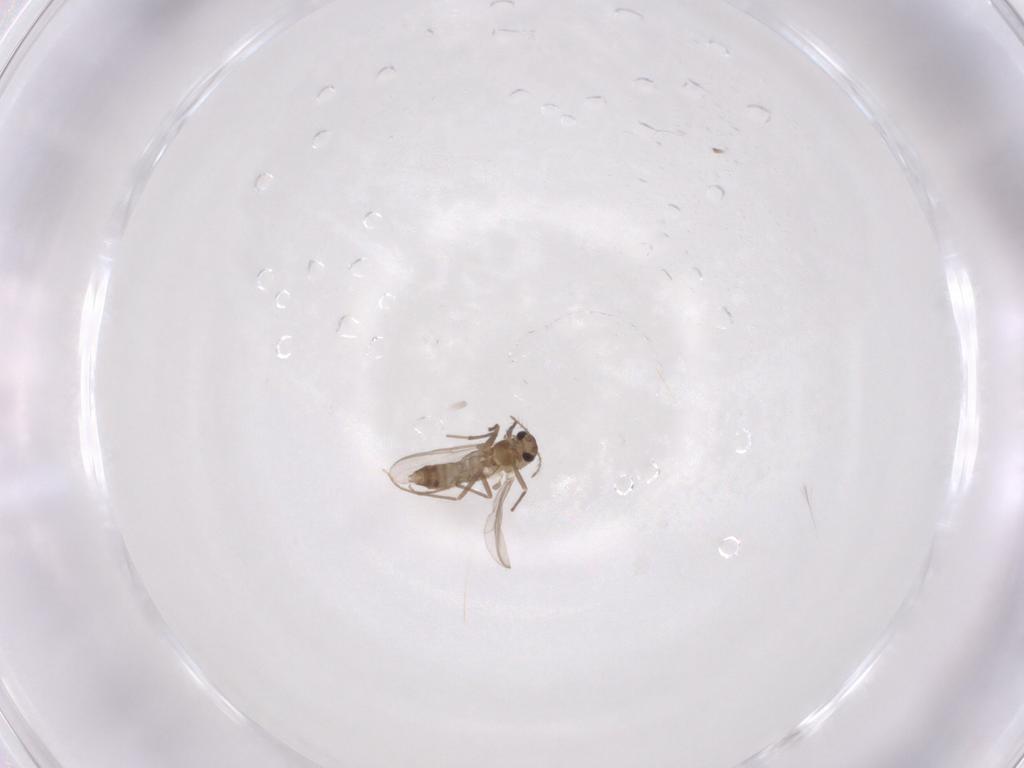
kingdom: Animalia
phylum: Arthropoda
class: Insecta
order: Diptera
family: Chironomidae
